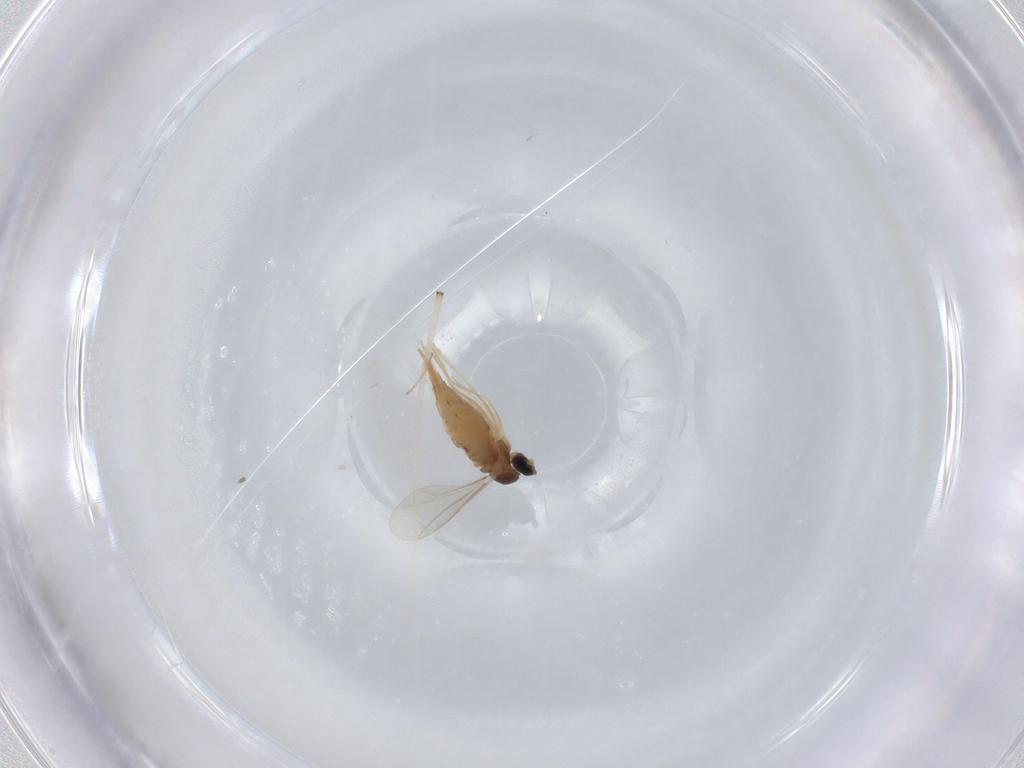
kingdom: Animalia
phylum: Arthropoda
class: Insecta
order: Diptera
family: Cecidomyiidae
